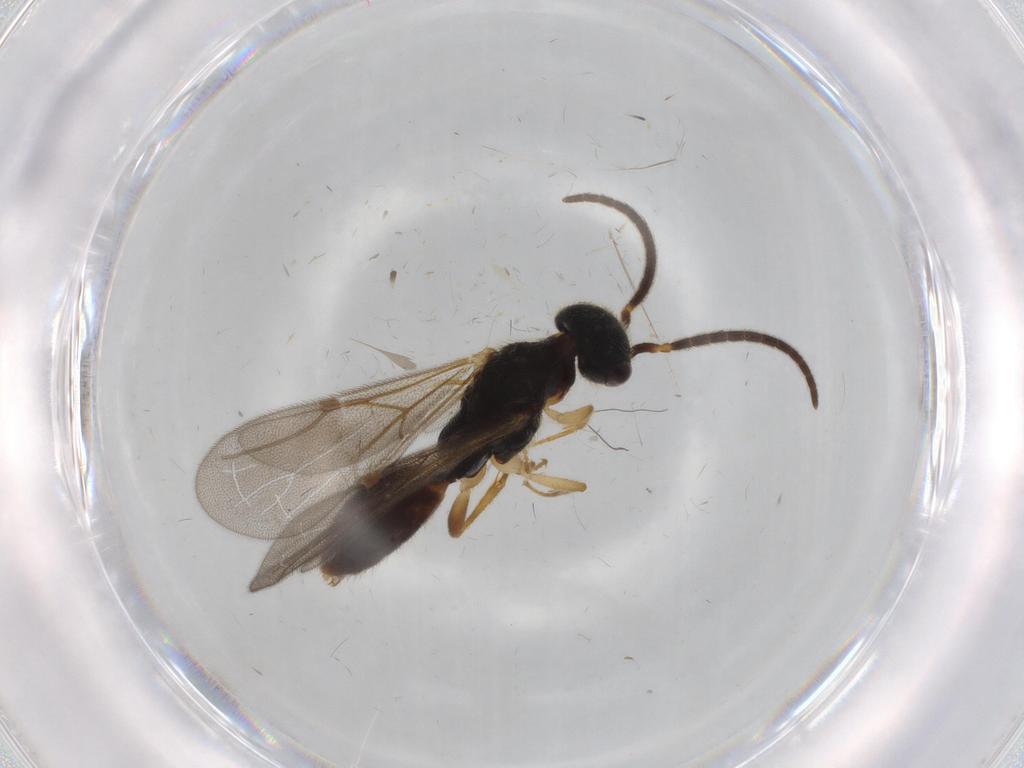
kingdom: Animalia
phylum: Arthropoda
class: Insecta
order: Hymenoptera
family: Bethylidae
